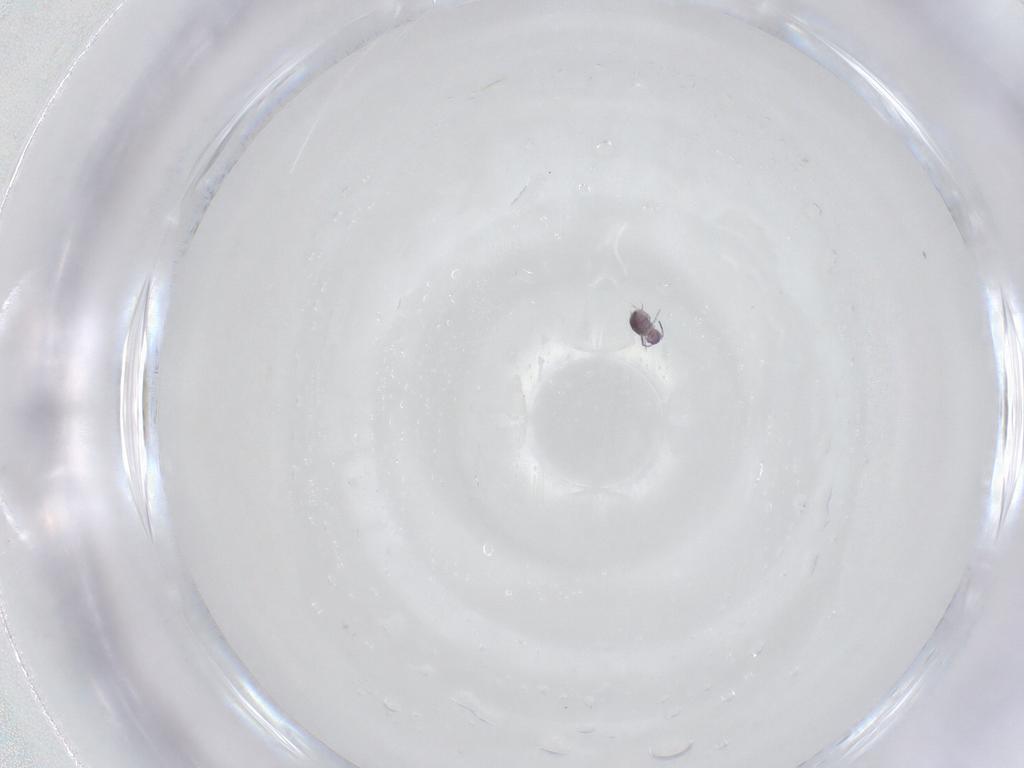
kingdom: Animalia
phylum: Arthropoda
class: Collembola
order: Symphypleona
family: Sminthurididae
